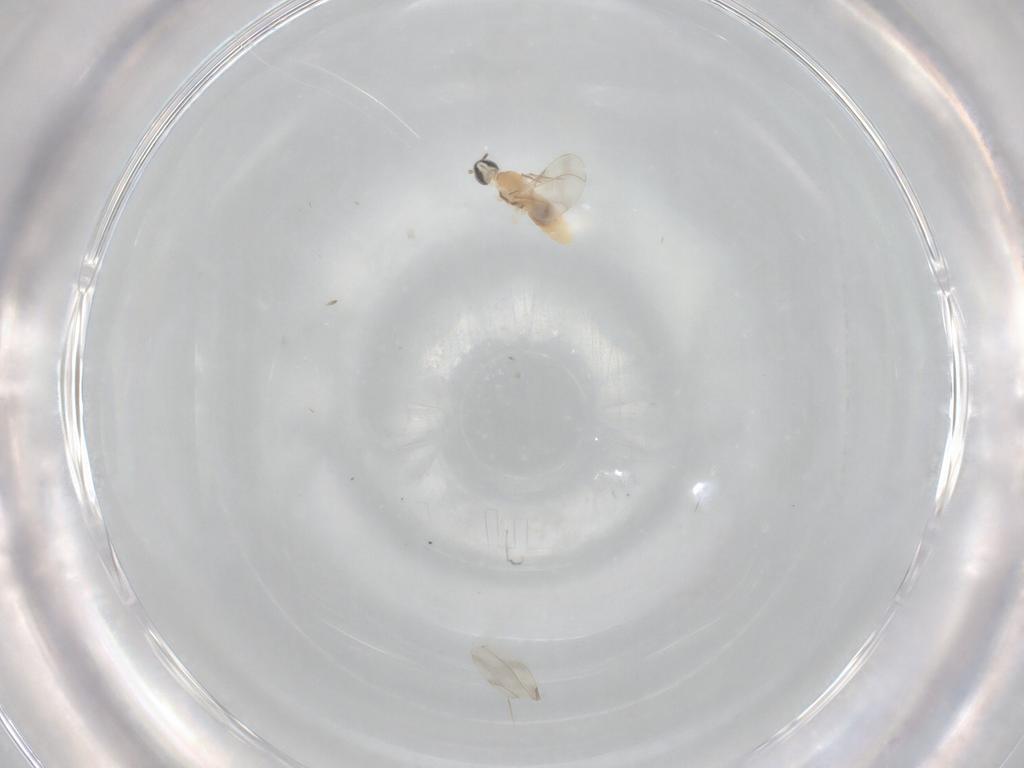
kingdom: Animalia
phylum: Arthropoda
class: Insecta
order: Diptera
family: Cecidomyiidae
